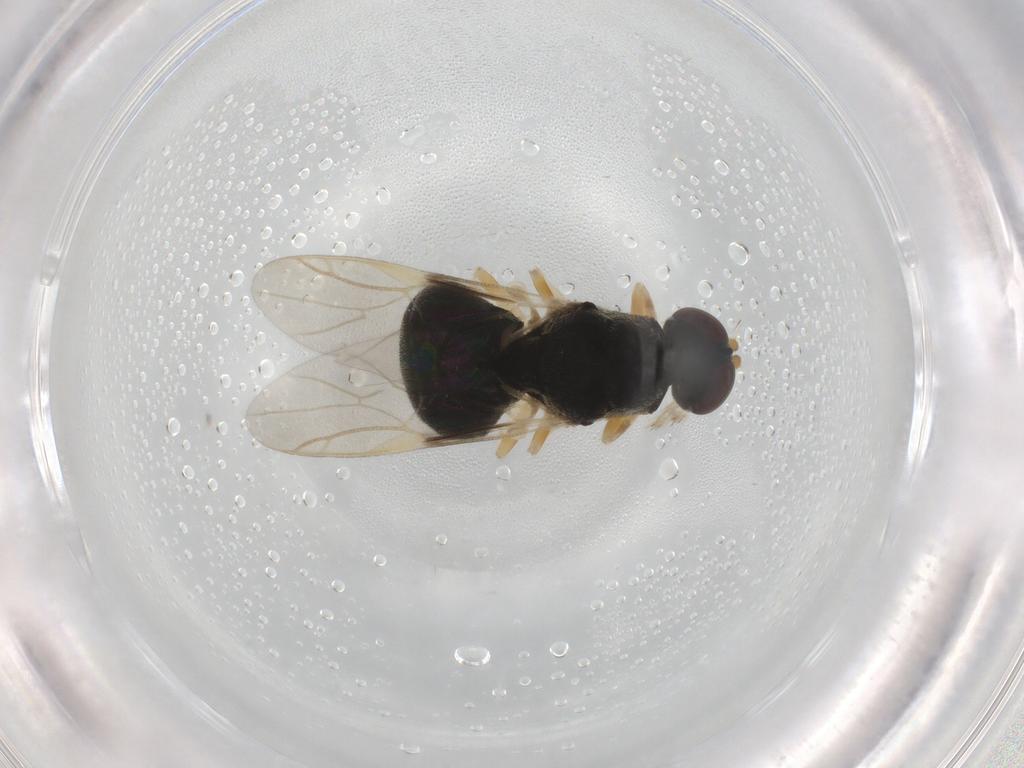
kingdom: Animalia
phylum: Arthropoda
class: Insecta
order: Diptera
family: Stratiomyidae
